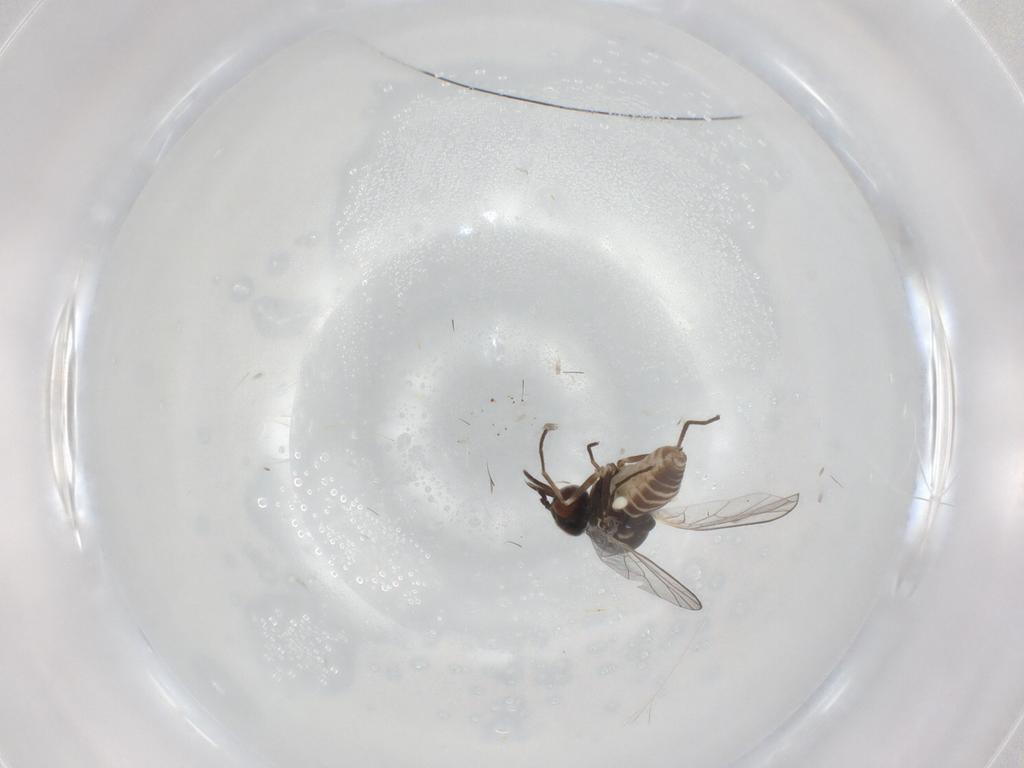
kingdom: Animalia
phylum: Arthropoda
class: Insecta
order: Diptera
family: Bombyliidae
